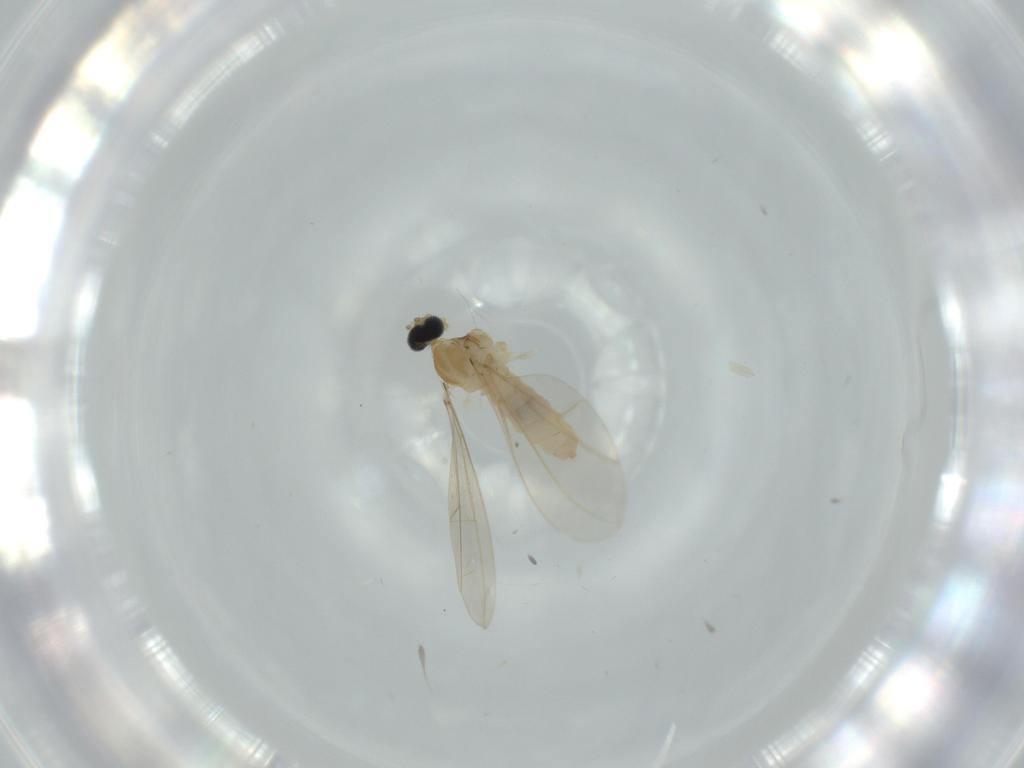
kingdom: Animalia
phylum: Arthropoda
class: Insecta
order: Diptera
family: Cecidomyiidae
